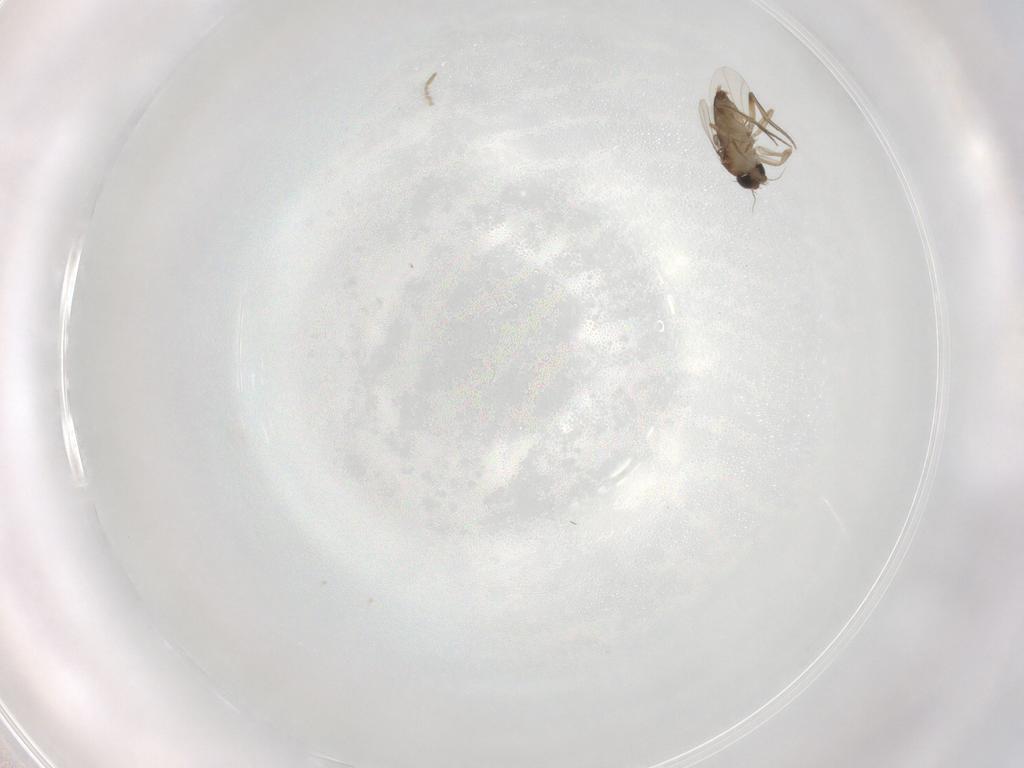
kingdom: Animalia
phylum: Arthropoda
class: Insecta
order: Diptera
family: Phoridae
